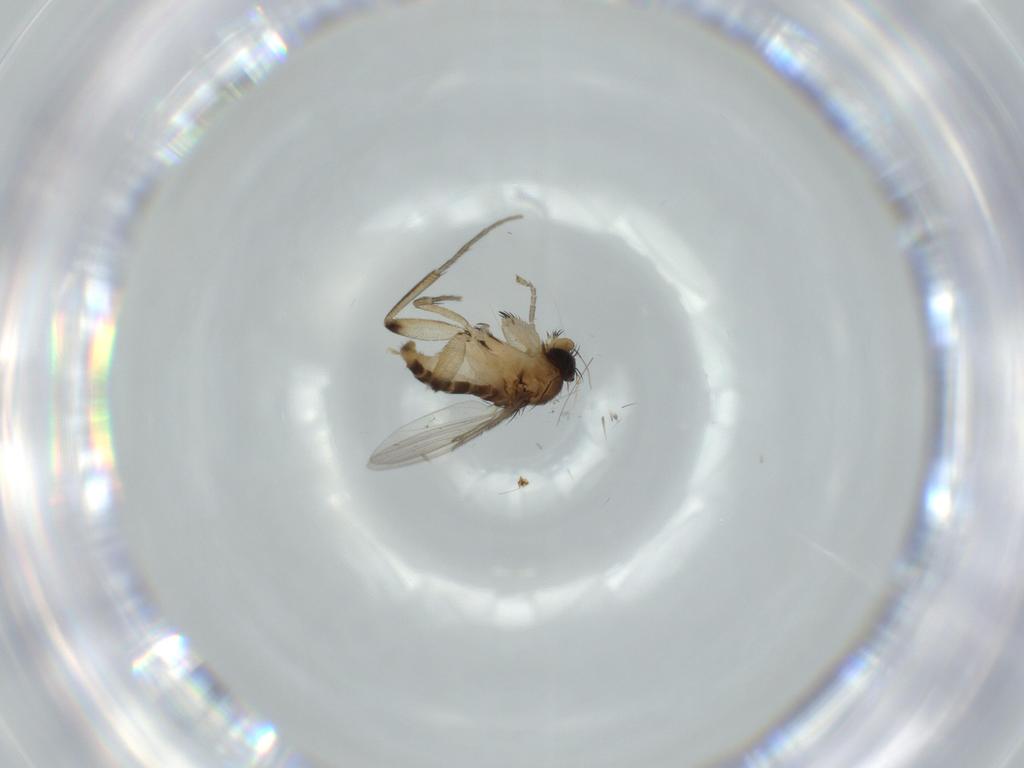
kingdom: Animalia
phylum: Arthropoda
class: Insecta
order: Diptera
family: Phoridae
